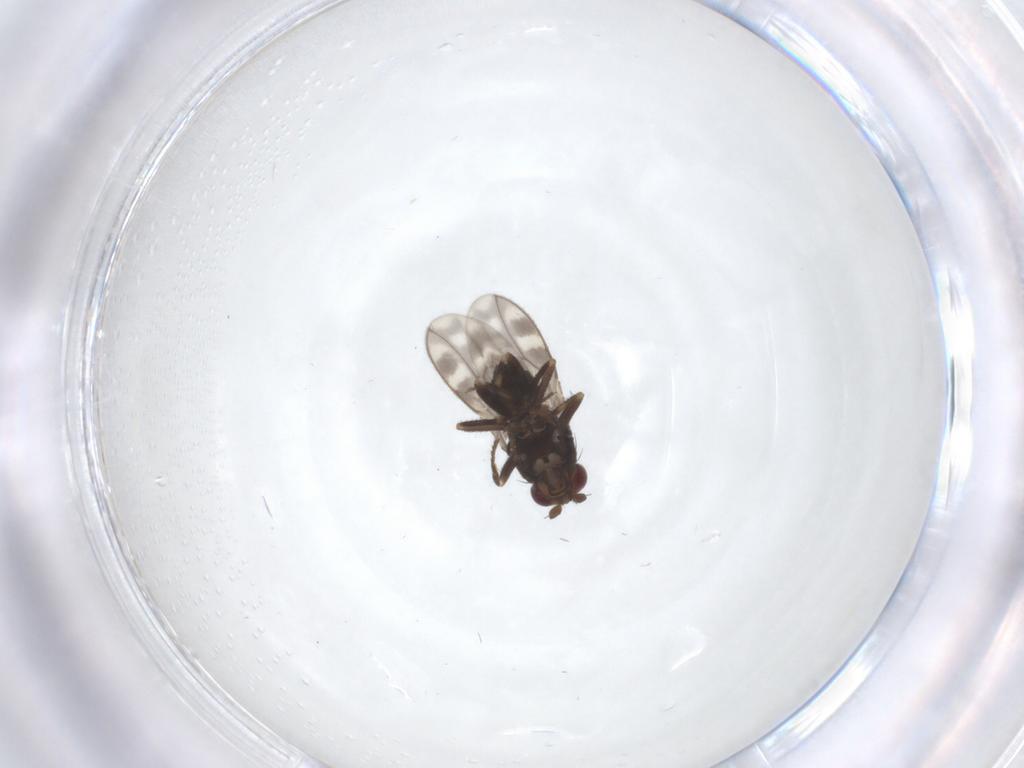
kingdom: Animalia
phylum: Arthropoda
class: Insecta
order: Diptera
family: Sphaeroceridae
